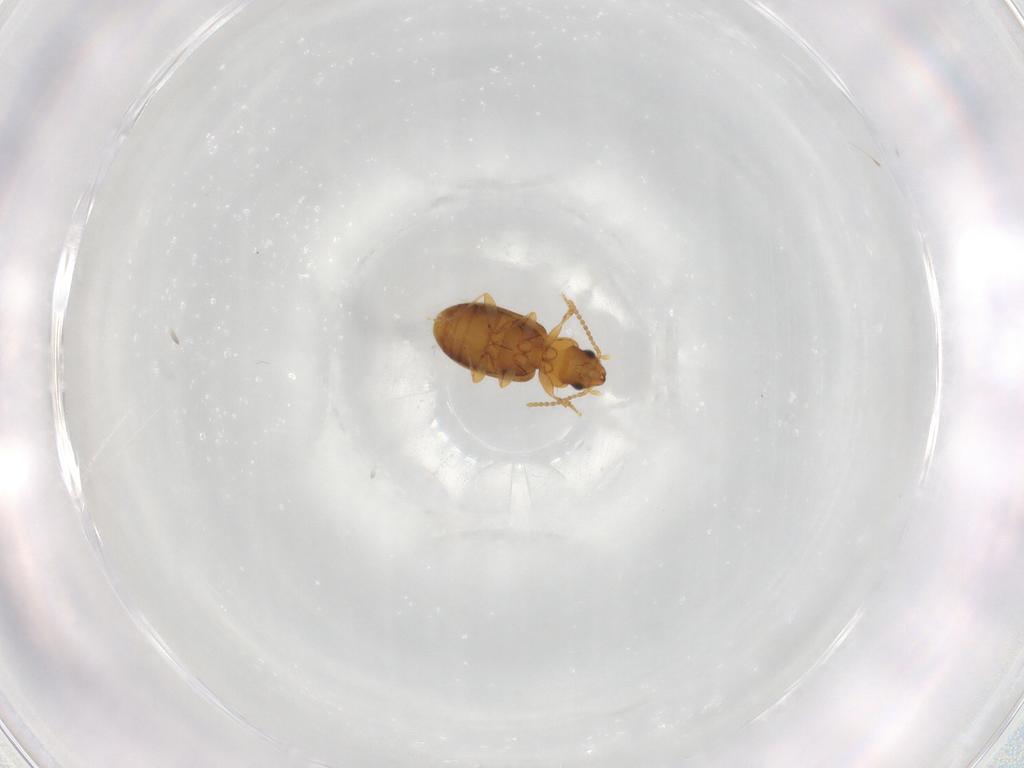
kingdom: Animalia
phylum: Arthropoda
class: Insecta
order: Coleoptera
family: Carabidae
